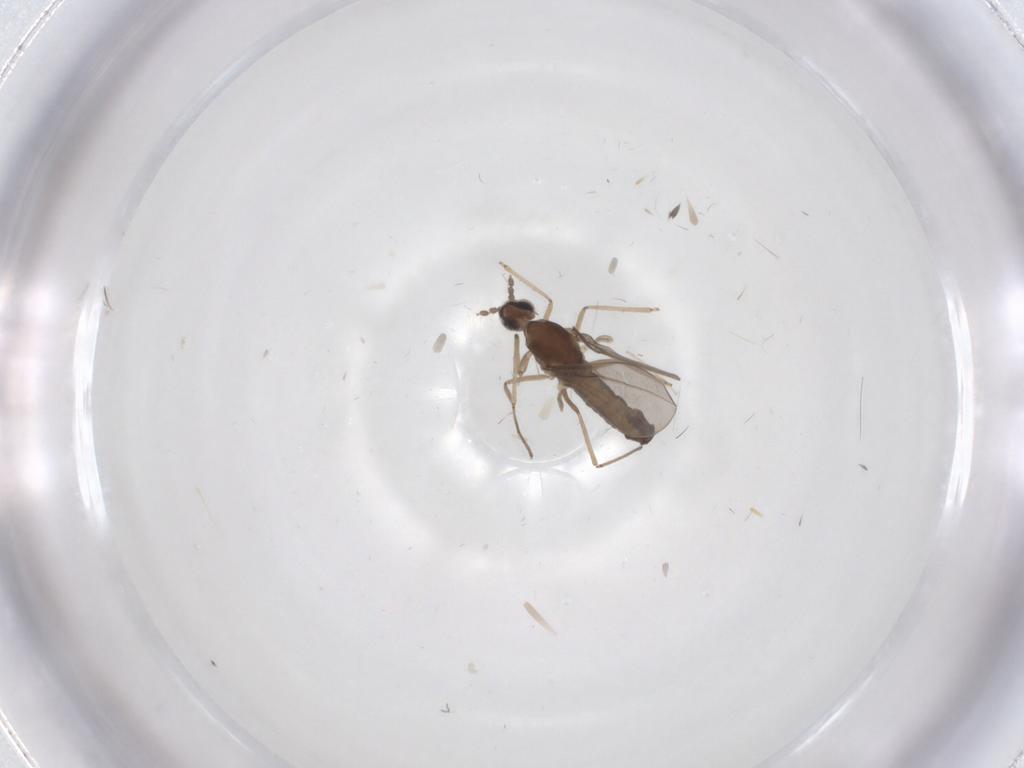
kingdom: Animalia
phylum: Arthropoda
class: Insecta
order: Diptera
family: Cecidomyiidae
